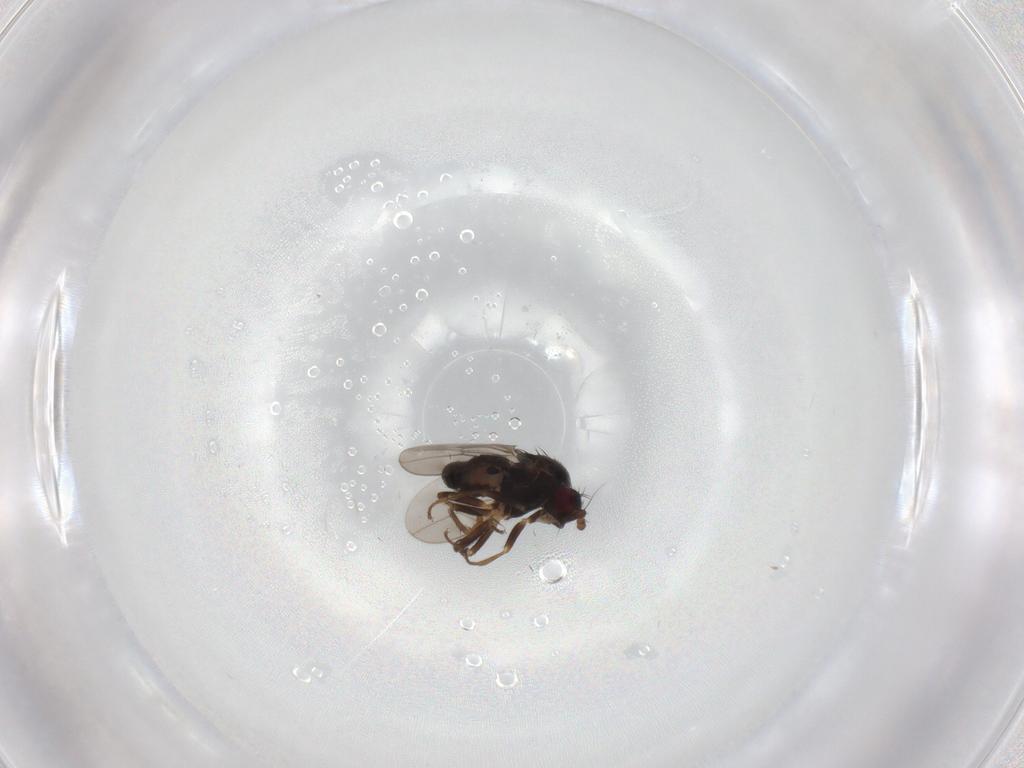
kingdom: Animalia
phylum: Arthropoda
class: Insecta
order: Diptera
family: Sphaeroceridae
